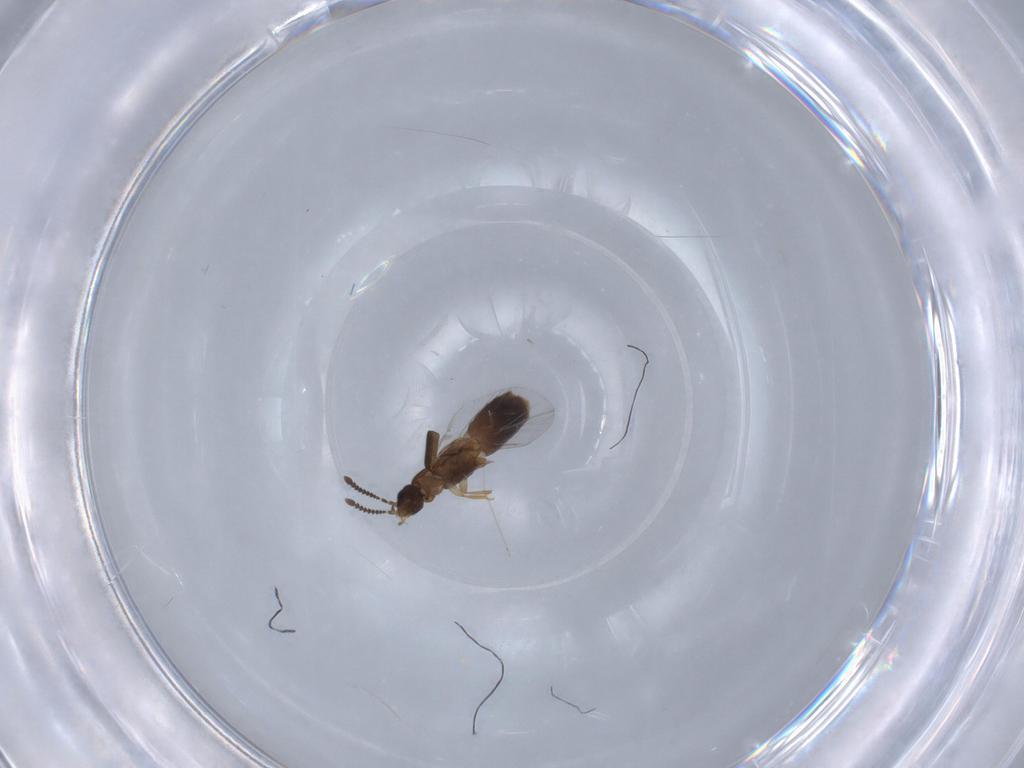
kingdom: Animalia
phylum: Arthropoda
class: Insecta
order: Coleoptera
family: Staphylinidae
